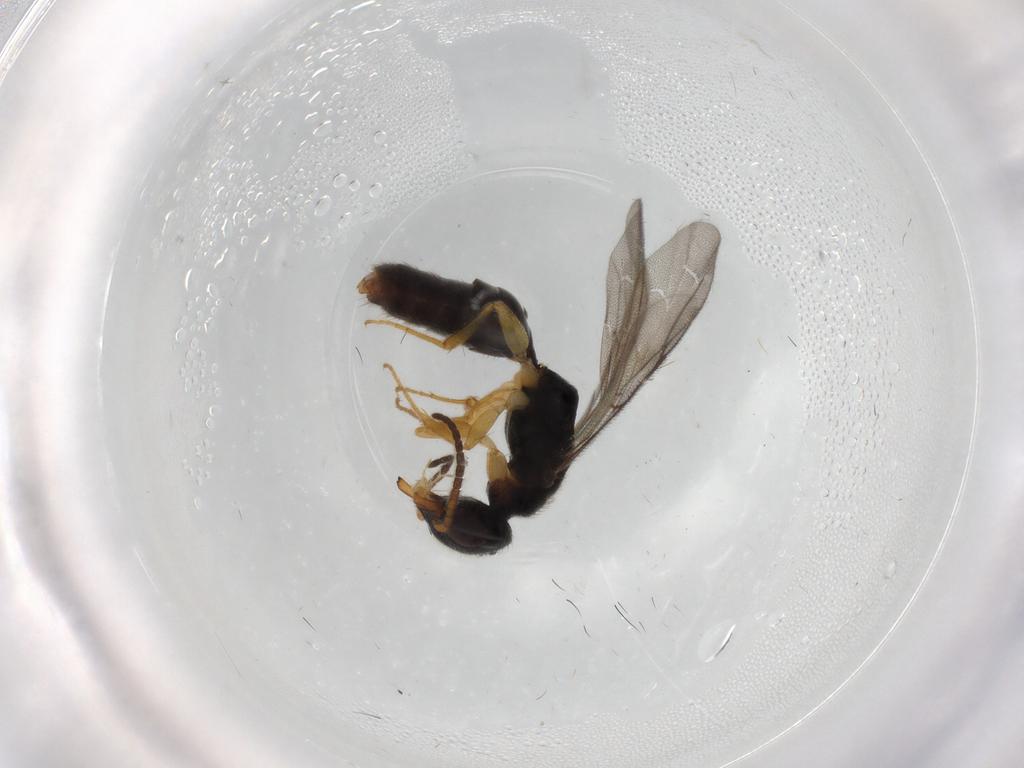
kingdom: Animalia
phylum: Arthropoda
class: Insecta
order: Hymenoptera
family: Bethylidae
